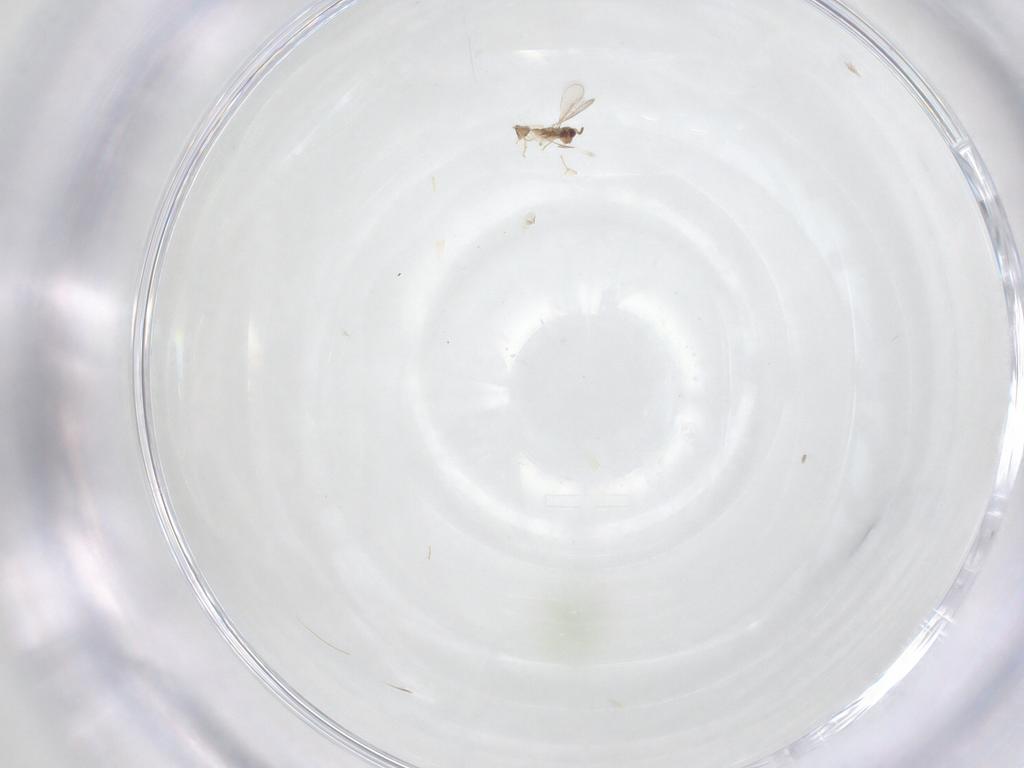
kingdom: Animalia
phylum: Arthropoda
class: Insecta
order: Hymenoptera
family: Aphelinidae
